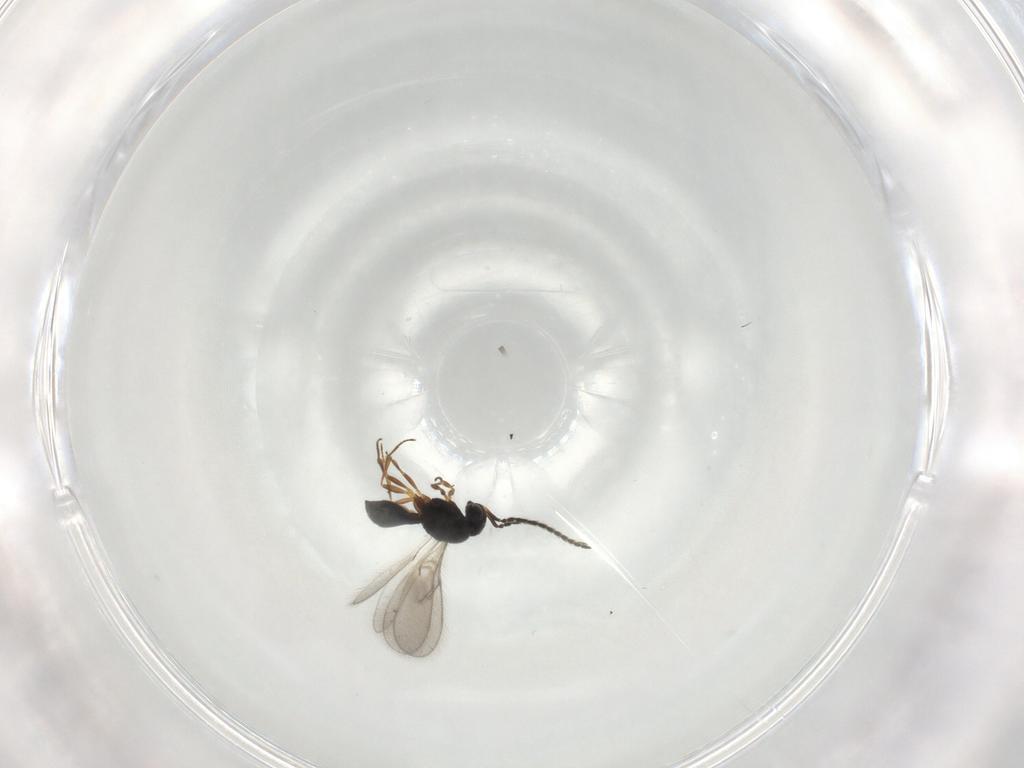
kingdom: Animalia
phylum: Arthropoda
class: Insecta
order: Hymenoptera
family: Scelionidae
